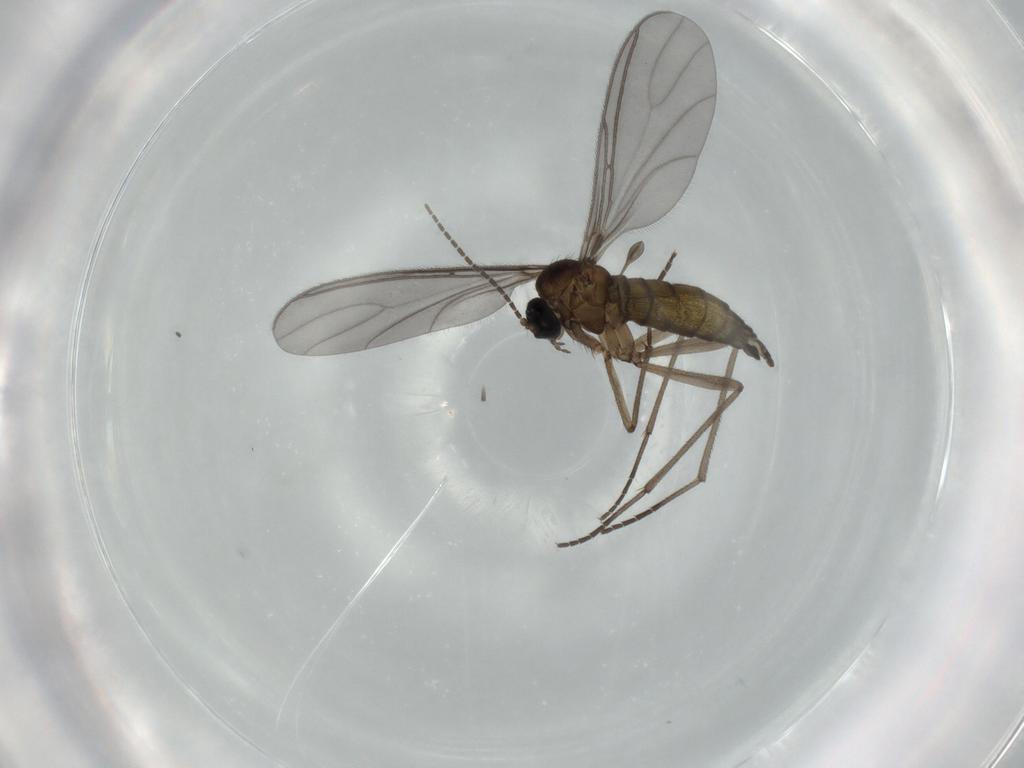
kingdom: Animalia
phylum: Arthropoda
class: Insecta
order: Diptera
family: Sciaridae
